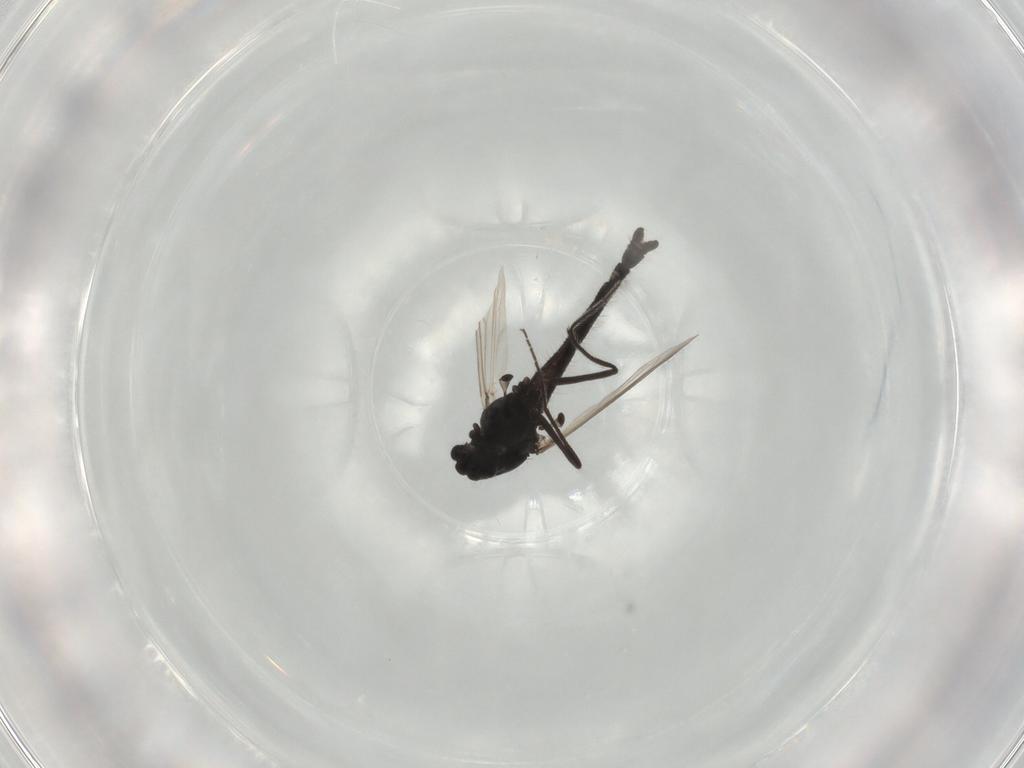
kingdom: Animalia
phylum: Arthropoda
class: Insecta
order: Diptera
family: Chironomidae
